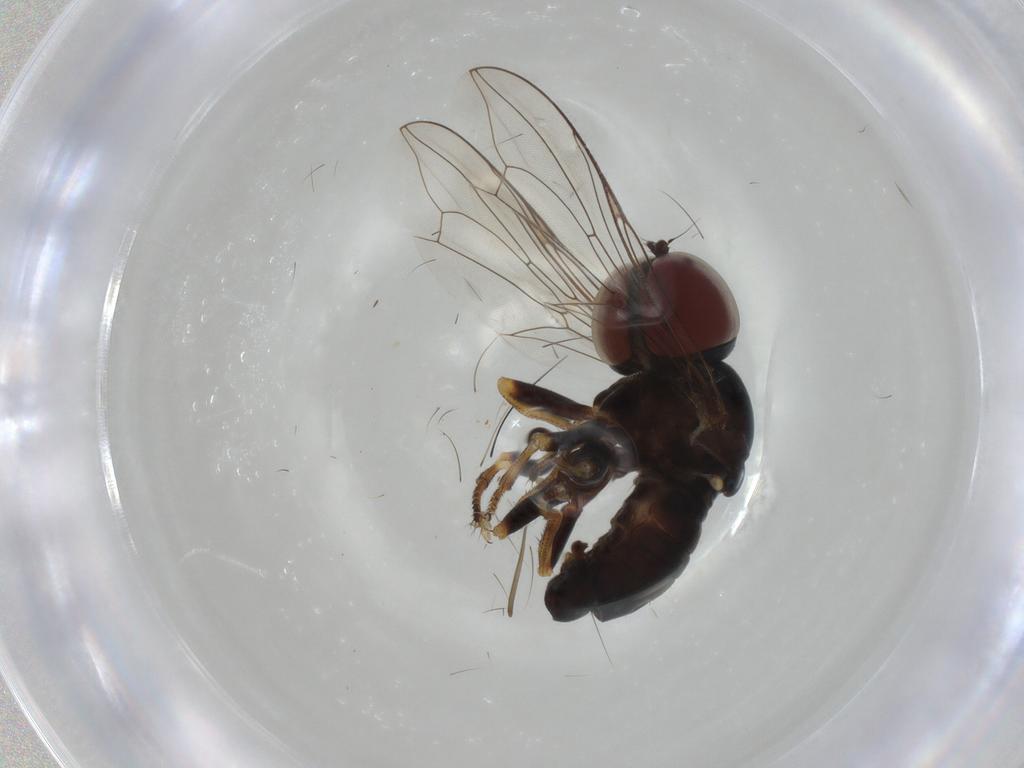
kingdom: Animalia
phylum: Arthropoda
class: Insecta
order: Diptera
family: Pipunculidae
